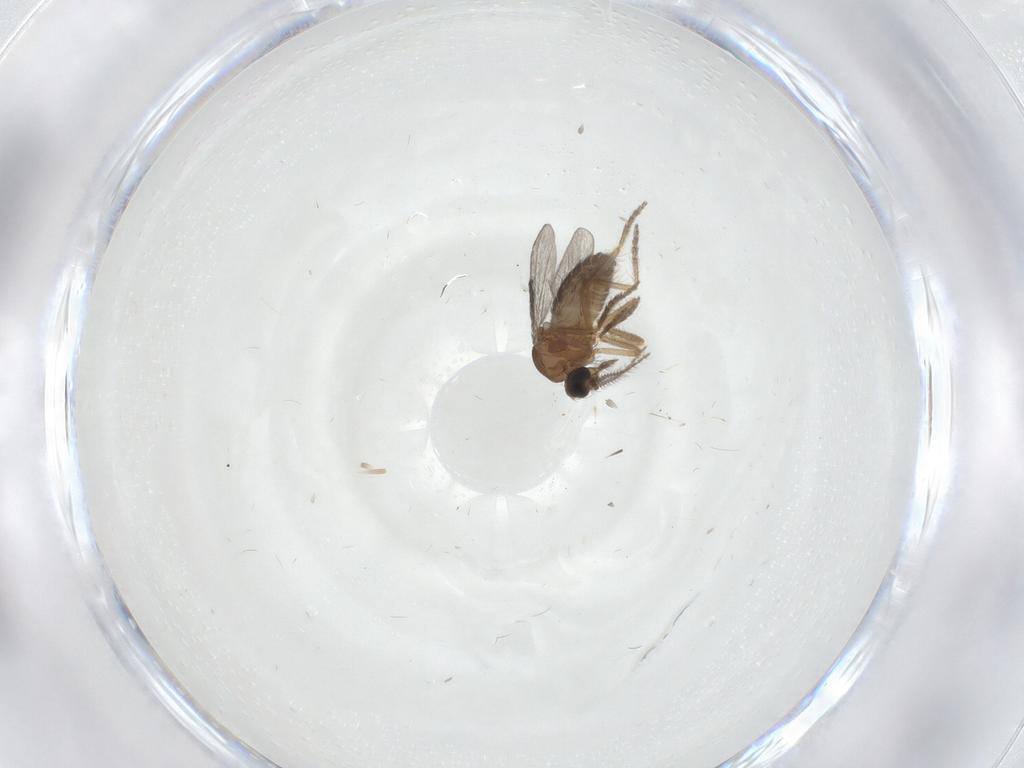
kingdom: Animalia
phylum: Arthropoda
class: Insecta
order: Diptera
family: Ceratopogonidae
